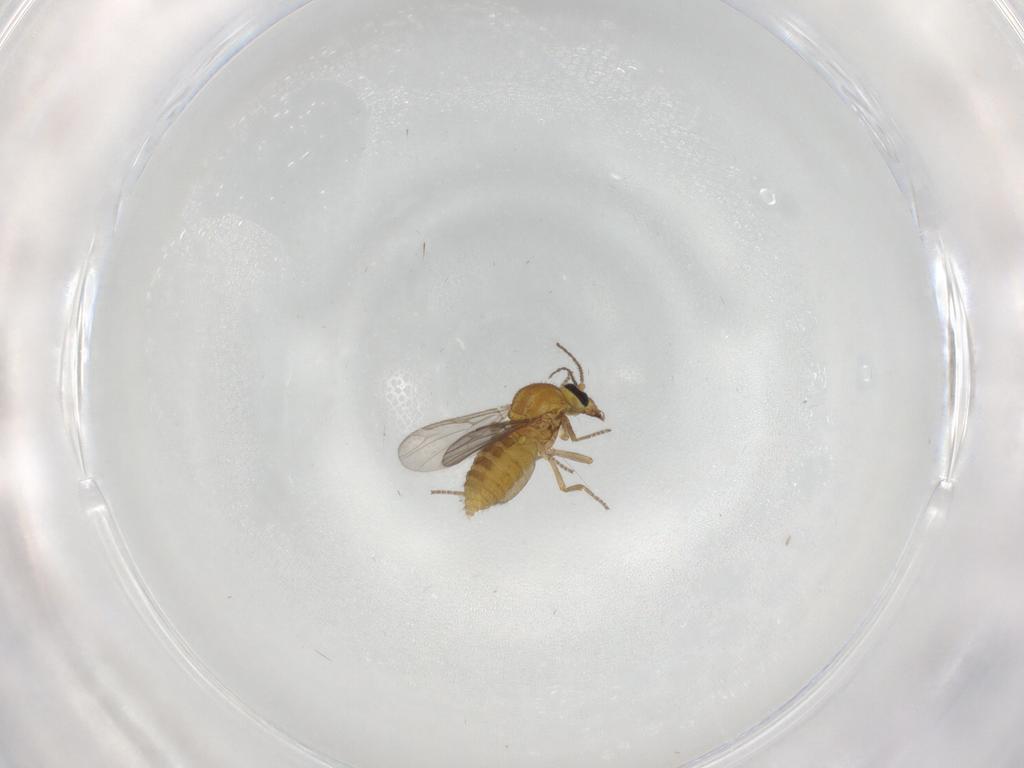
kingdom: Animalia
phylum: Arthropoda
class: Insecta
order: Diptera
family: Ceratopogonidae
